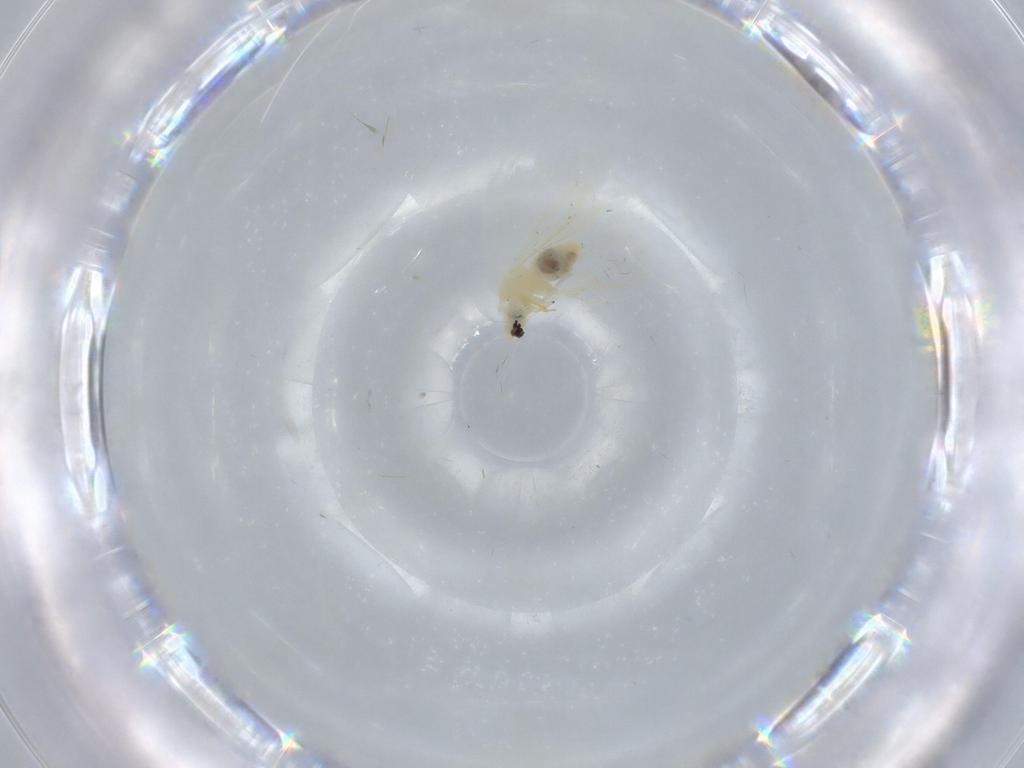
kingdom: Animalia
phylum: Arthropoda
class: Insecta
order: Hemiptera
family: Aleyrodidae
